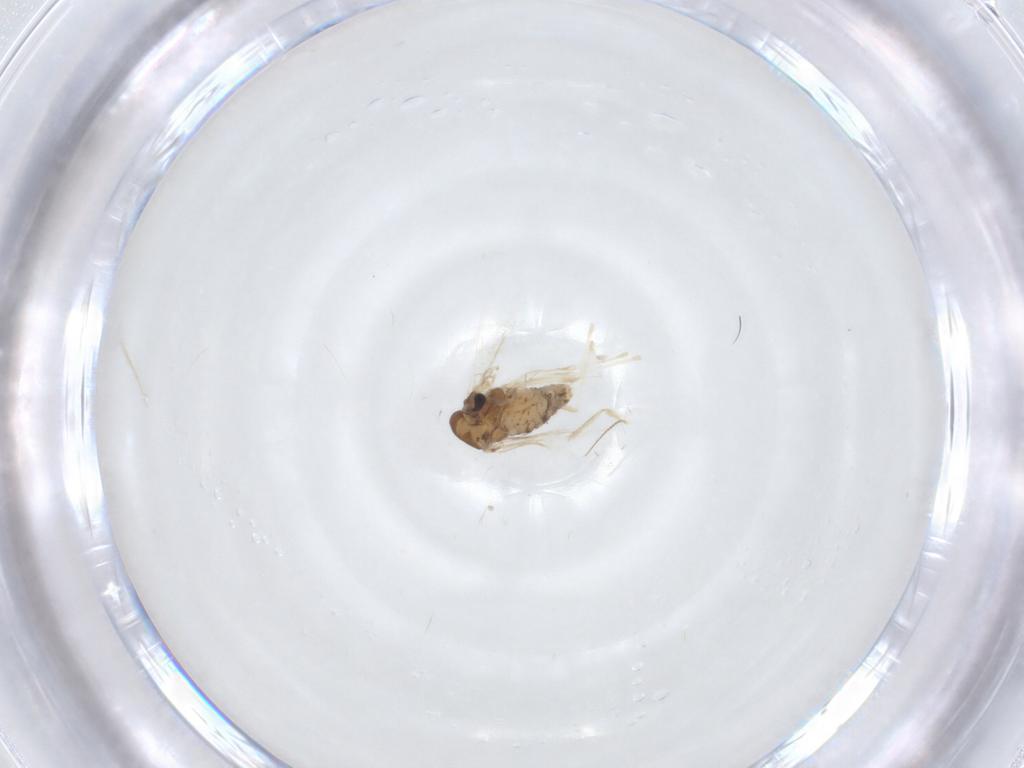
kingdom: Animalia
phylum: Arthropoda
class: Insecta
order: Diptera
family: Chironomidae
